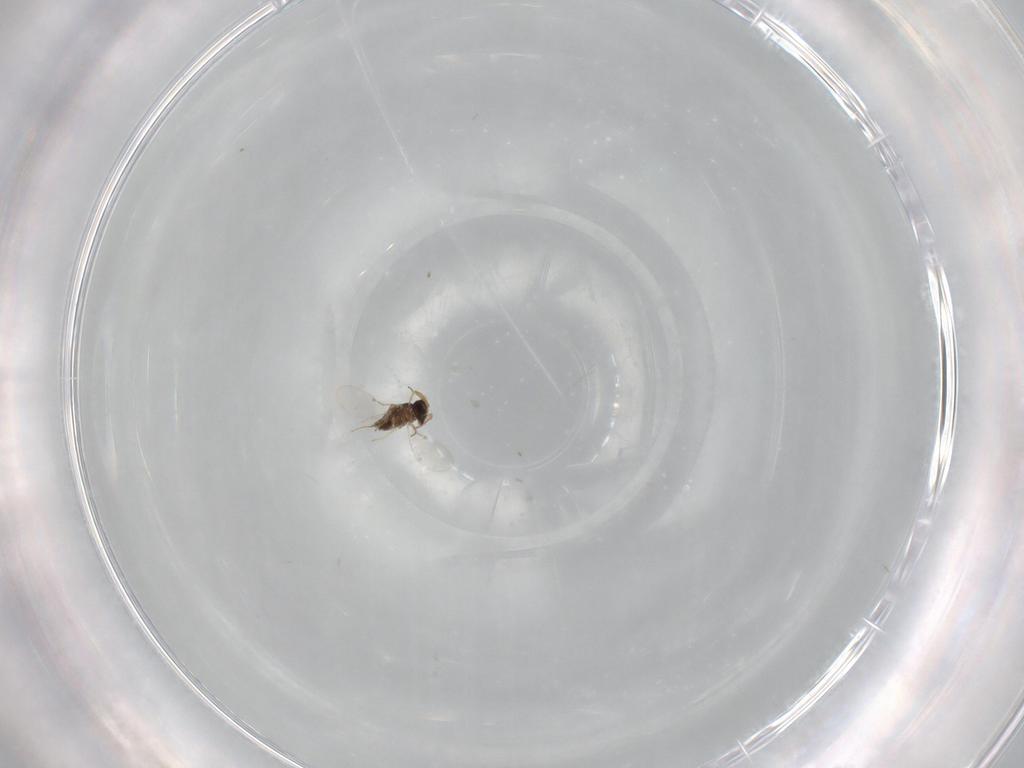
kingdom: Animalia
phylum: Arthropoda
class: Insecta
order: Hymenoptera
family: Encyrtidae
